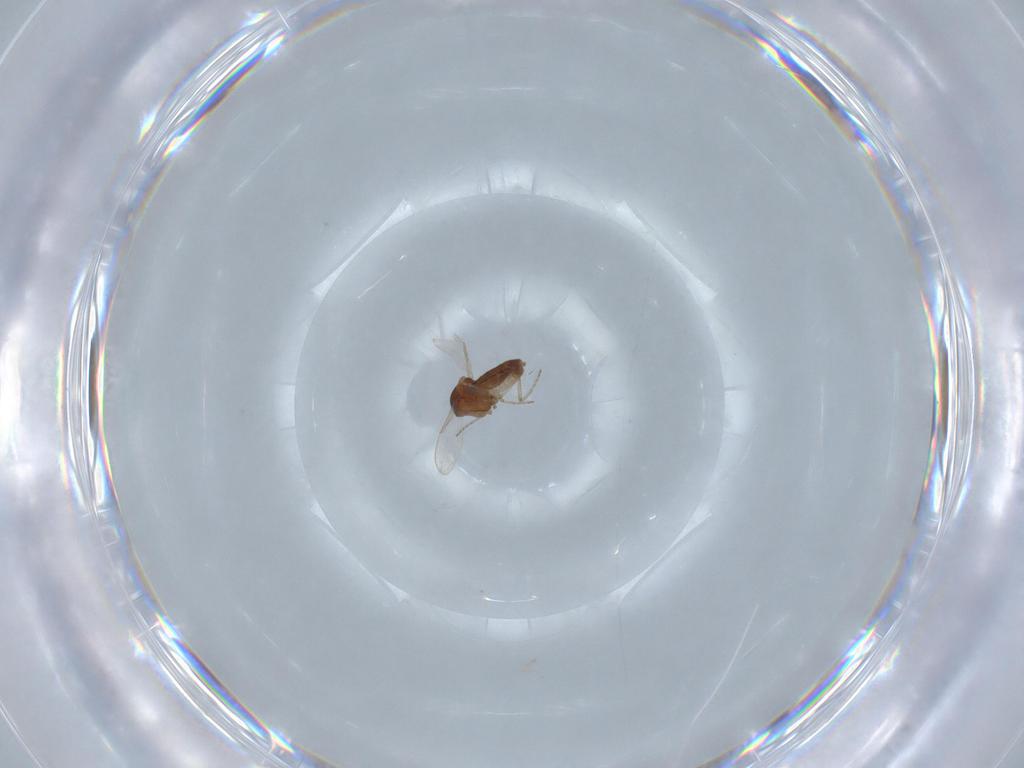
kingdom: Animalia
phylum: Arthropoda
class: Insecta
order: Diptera
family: Ceratopogonidae
